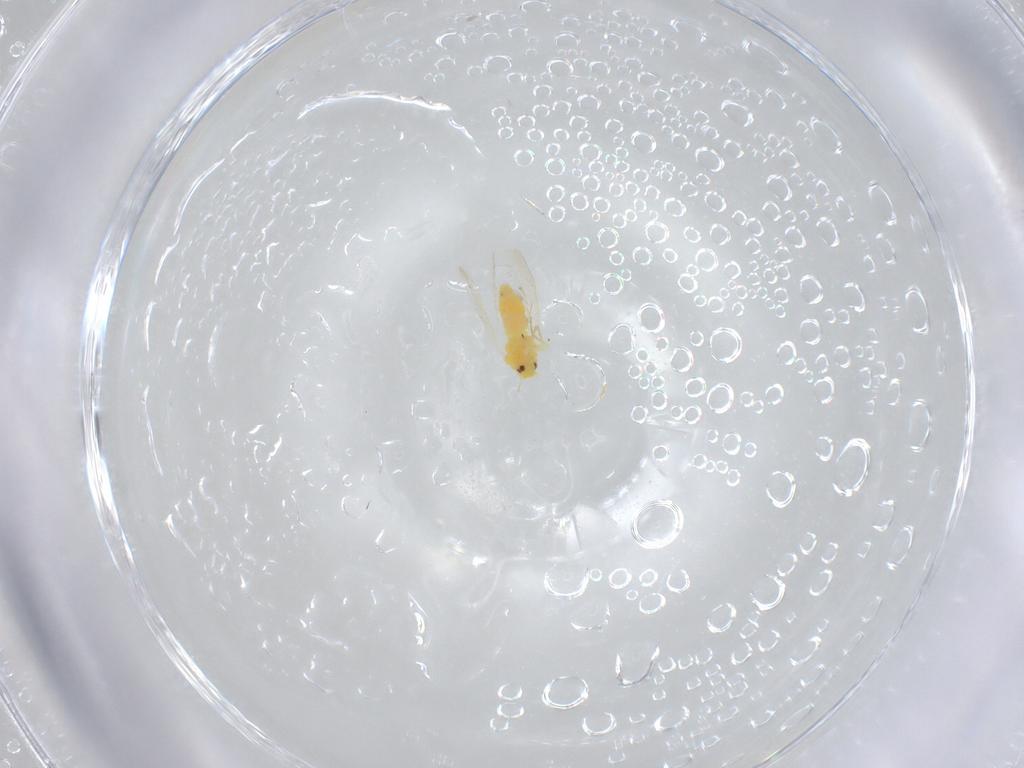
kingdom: Animalia
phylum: Arthropoda
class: Insecta
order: Hemiptera
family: Aleyrodidae
